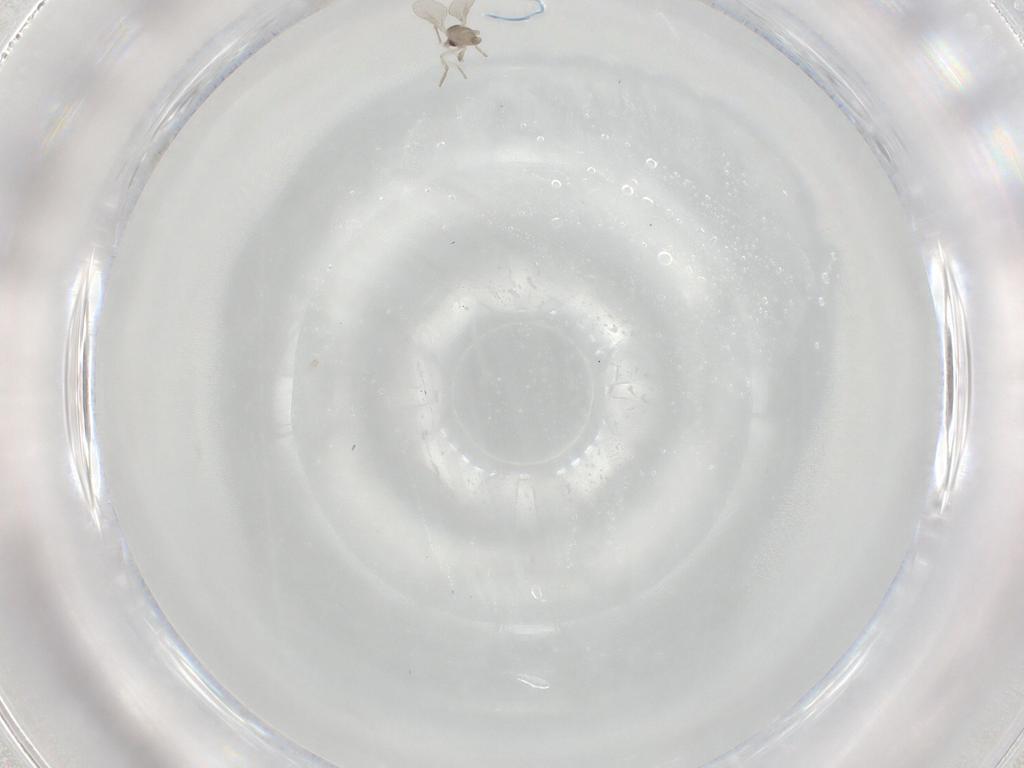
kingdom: Animalia
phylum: Arthropoda
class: Insecta
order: Diptera
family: Cecidomyiidae
